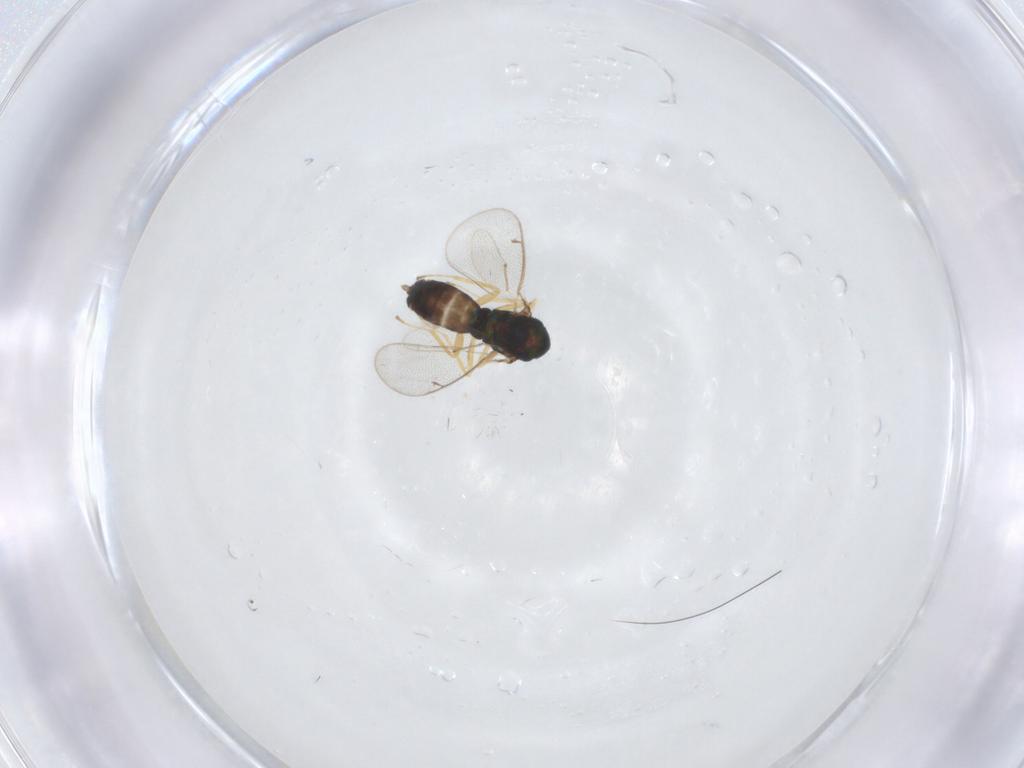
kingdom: Animalia
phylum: Arthropoda
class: Insecta
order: Hymenoptera
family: Eulophidae
